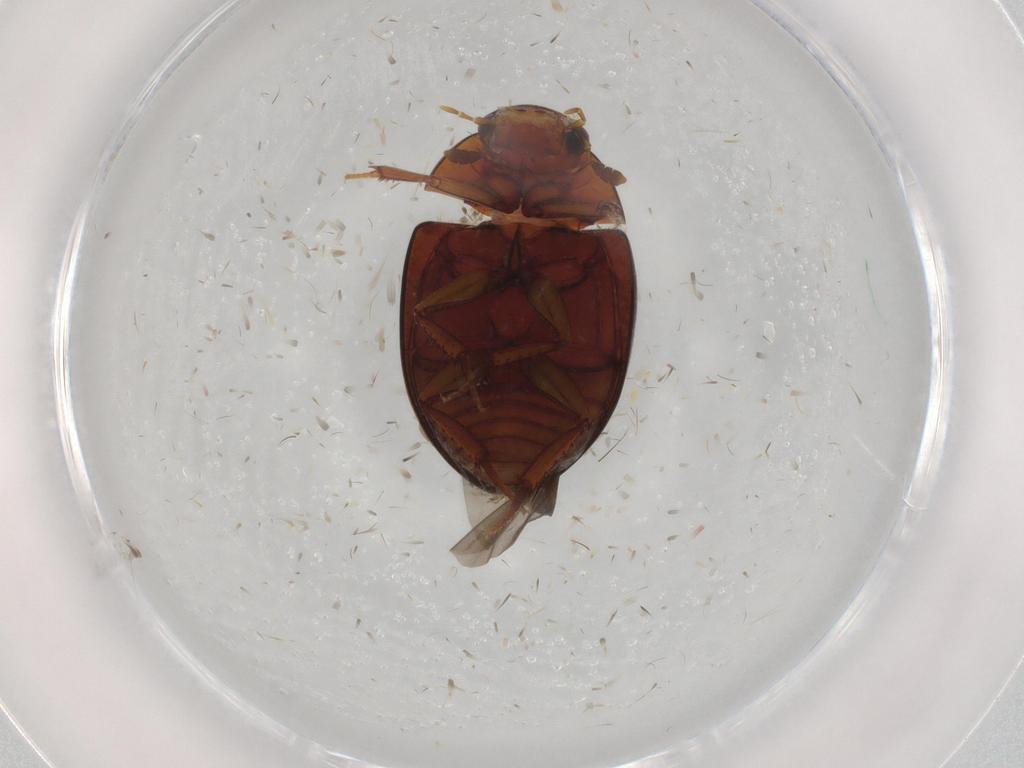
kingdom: Animalia
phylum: Arthropoda
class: Insecta
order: Coleoptera
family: Hydrophilidae
